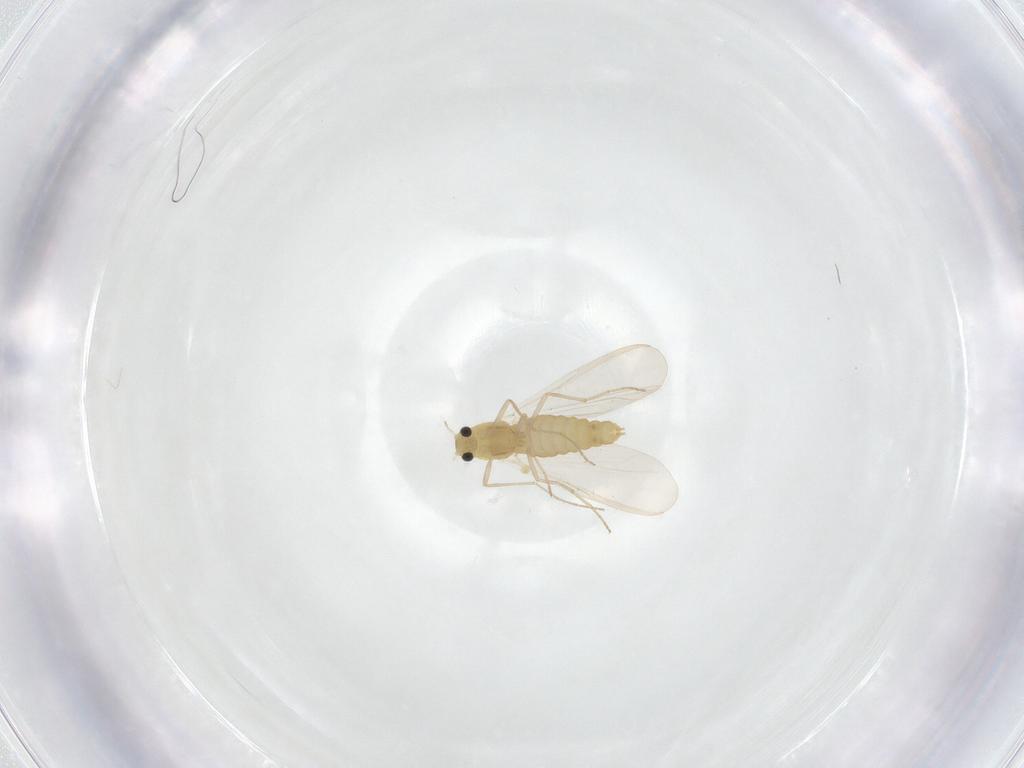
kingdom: Animalia
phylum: Arthropoda
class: Insecta
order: Diptera
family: Chironomidae
